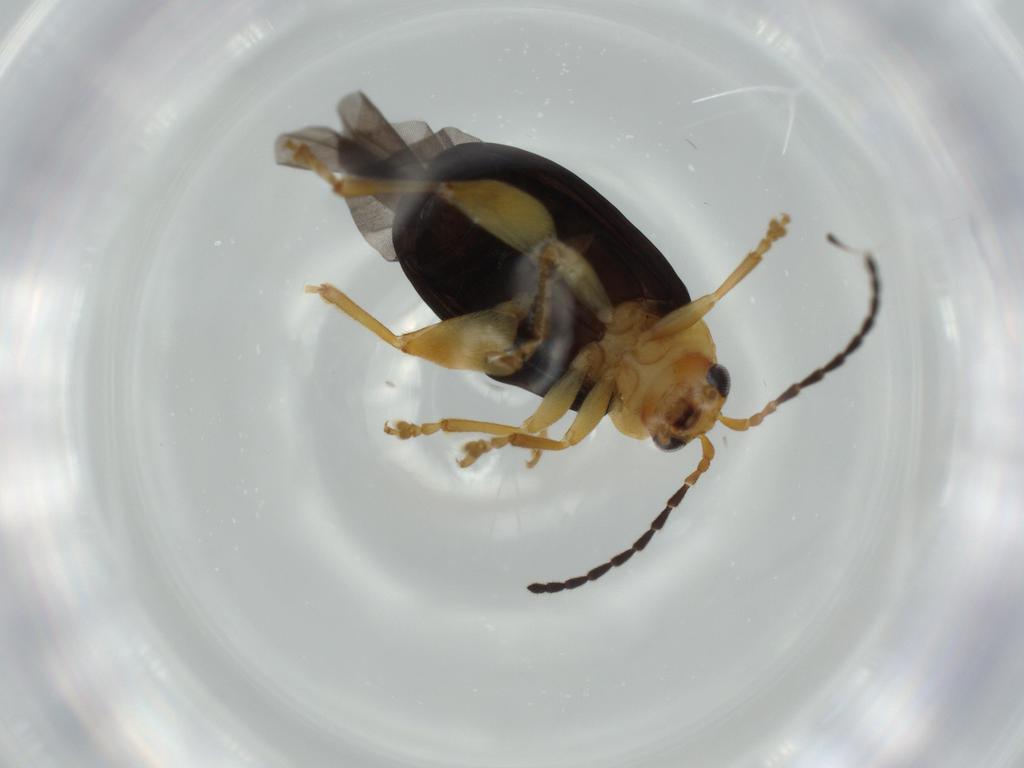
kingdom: Animalia
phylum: Arthropoda
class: Insecta
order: Coleoptera
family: Chrysomelidae
